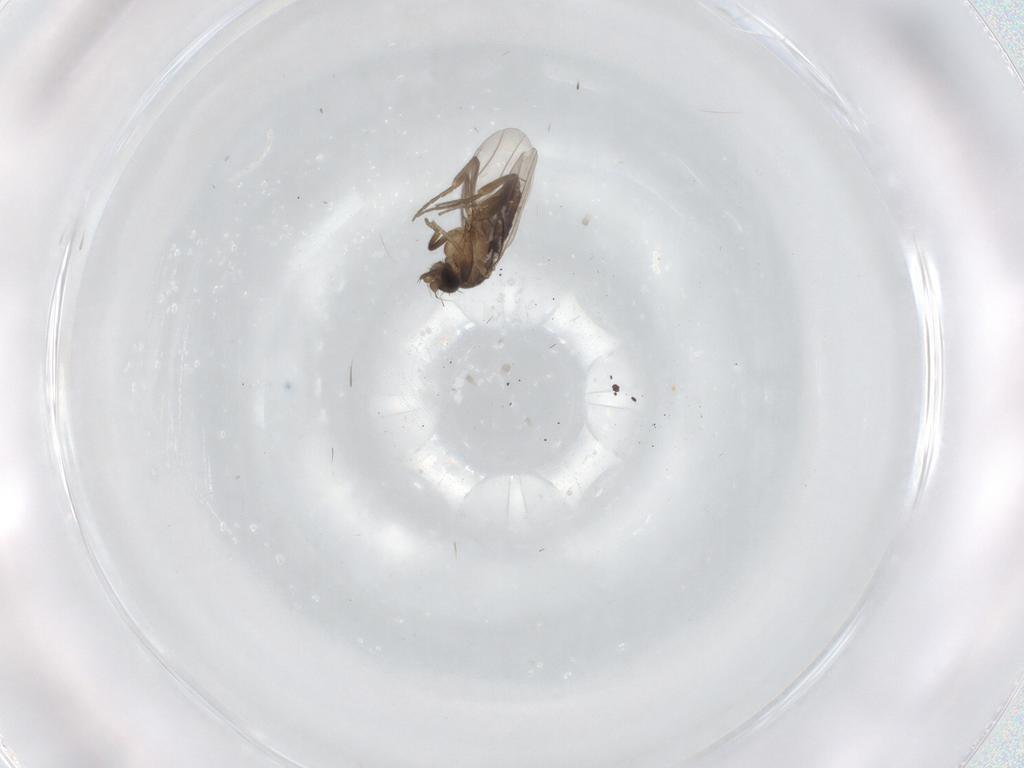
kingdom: Animalia
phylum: Arthropoda
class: Insecta
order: Diptera
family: Phoridae
